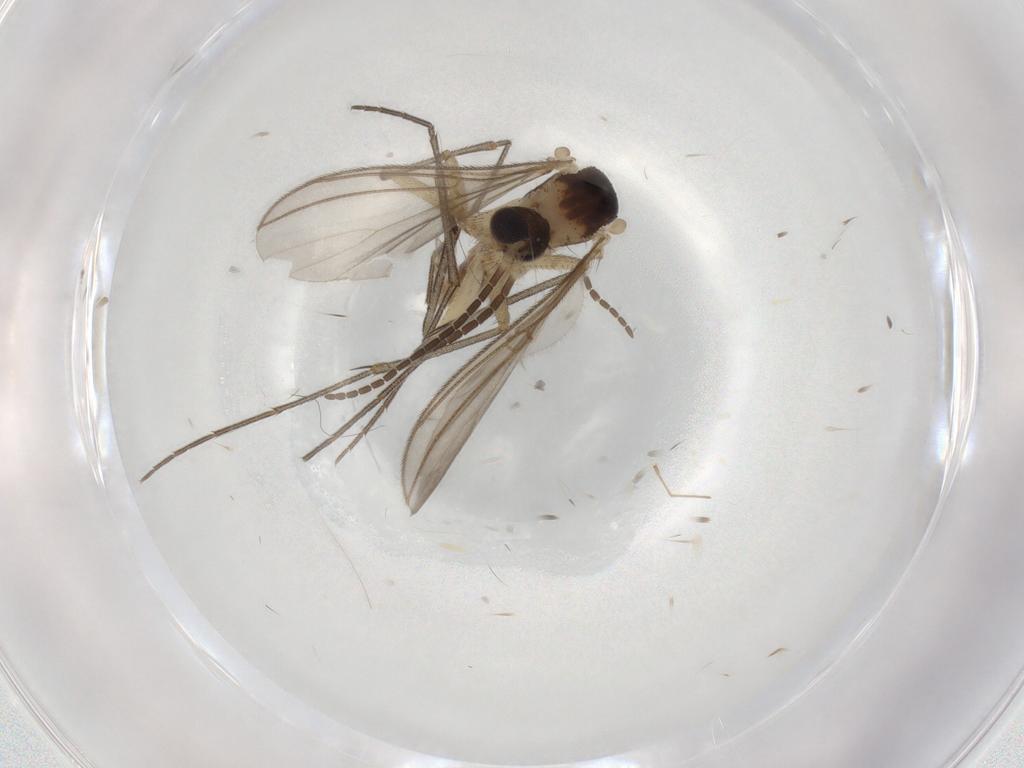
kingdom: Animalia
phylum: Arthropoda
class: Insecta
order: Diptera
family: Mycetophilidae
